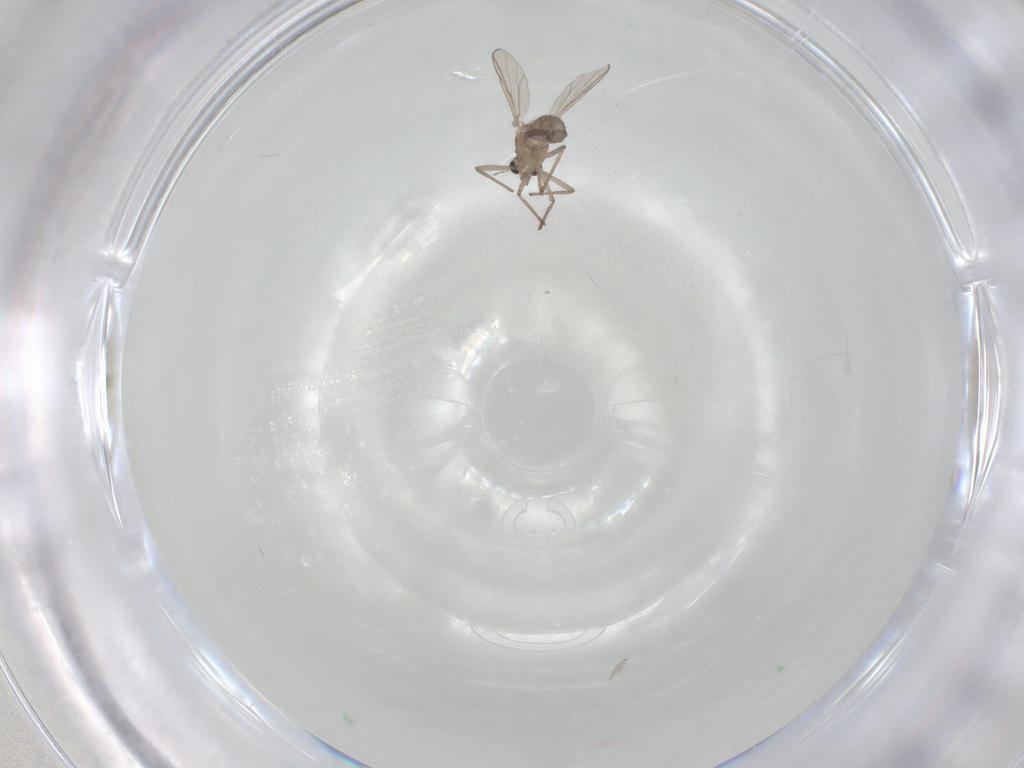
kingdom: Animalia
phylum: Arthropoda
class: Insecta
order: Diptera
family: Chironomidae
